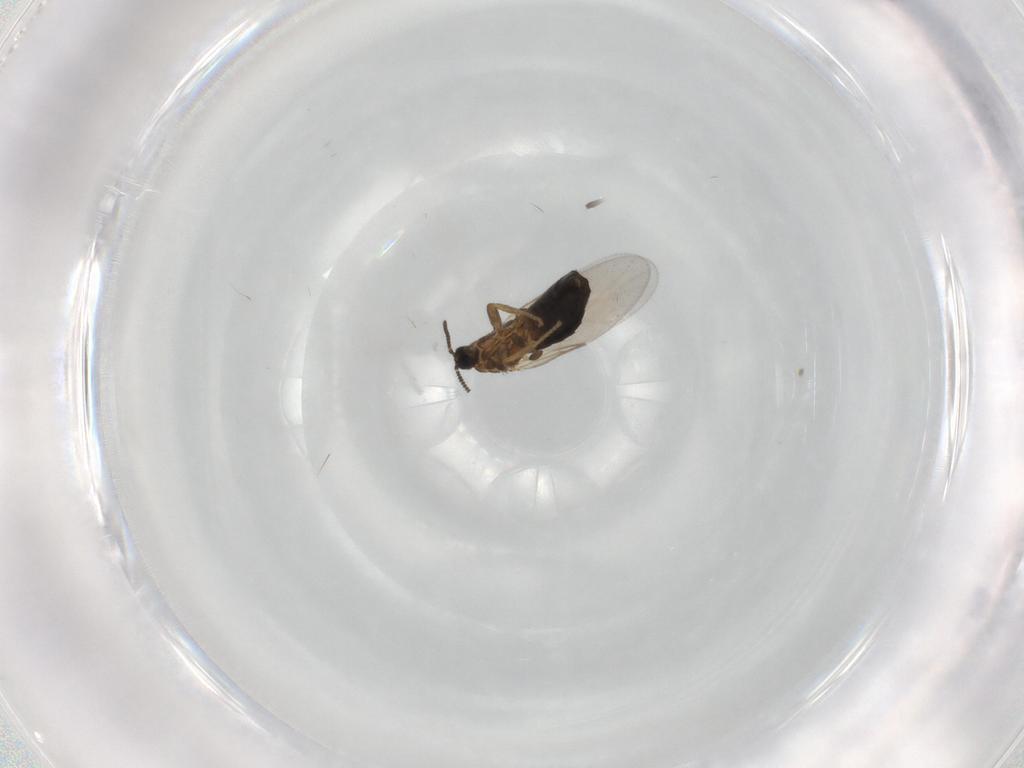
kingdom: Animalia
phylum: Arthropoda
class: Insecta
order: Diptera
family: Scatopsidae
